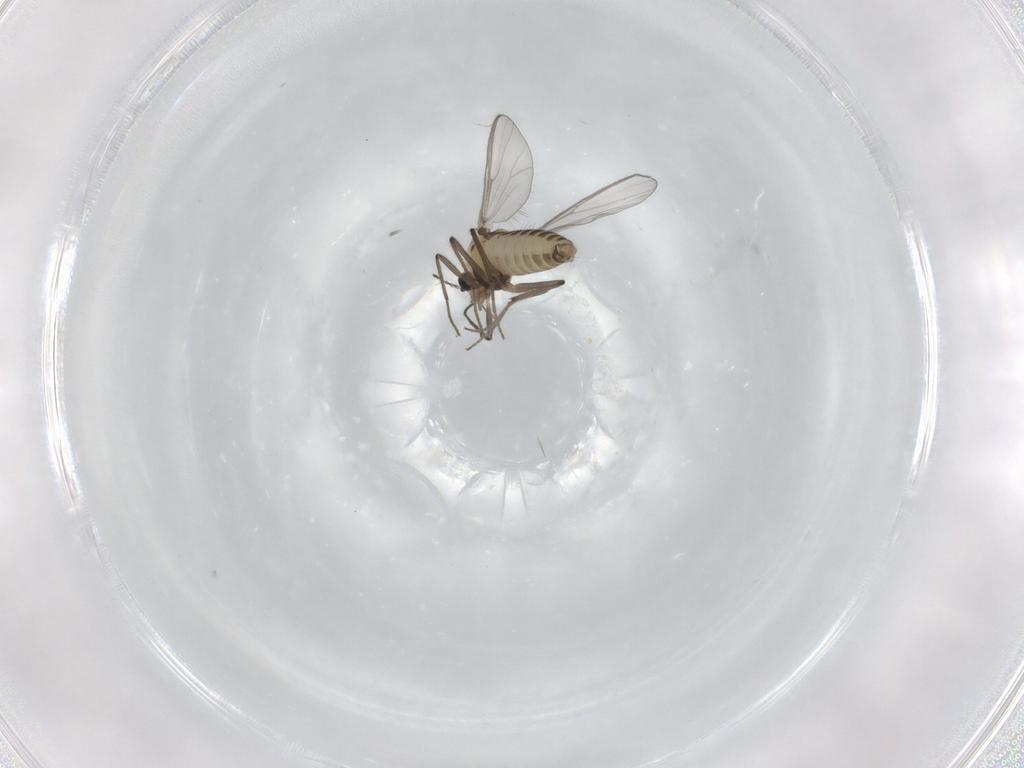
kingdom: Animalia
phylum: Arthropoda
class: Insecta
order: Diptera
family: Chironomidae
